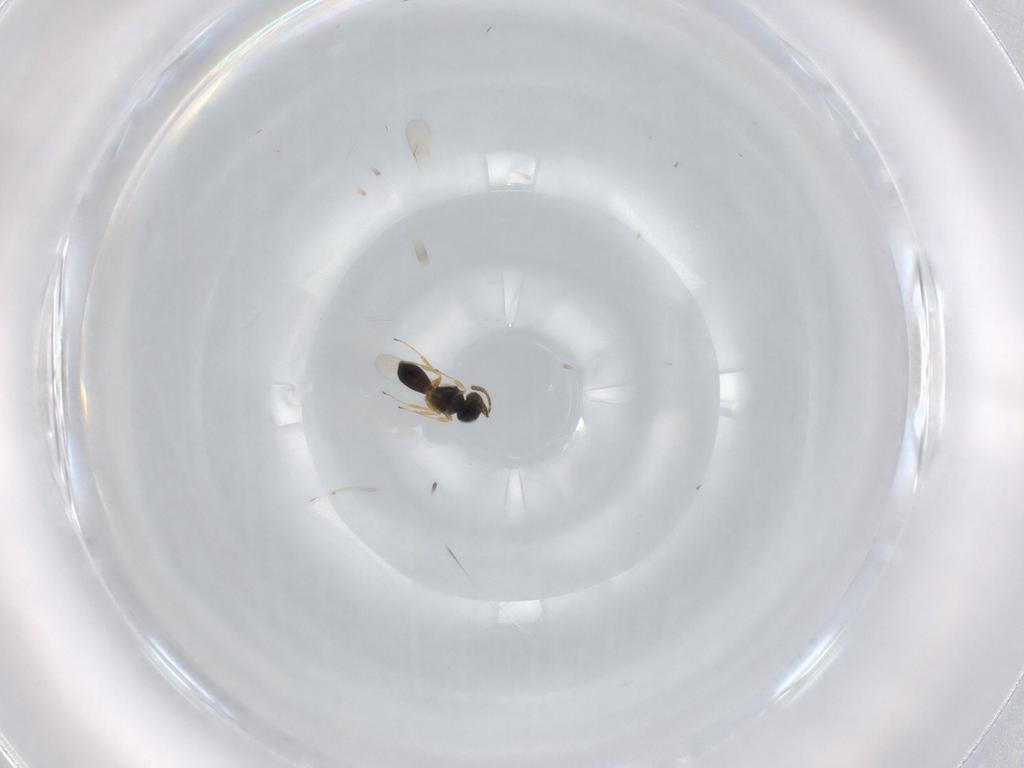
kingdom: Animalia
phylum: Arthropoda
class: Insecta
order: Hymenoptera
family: Scelionidae
